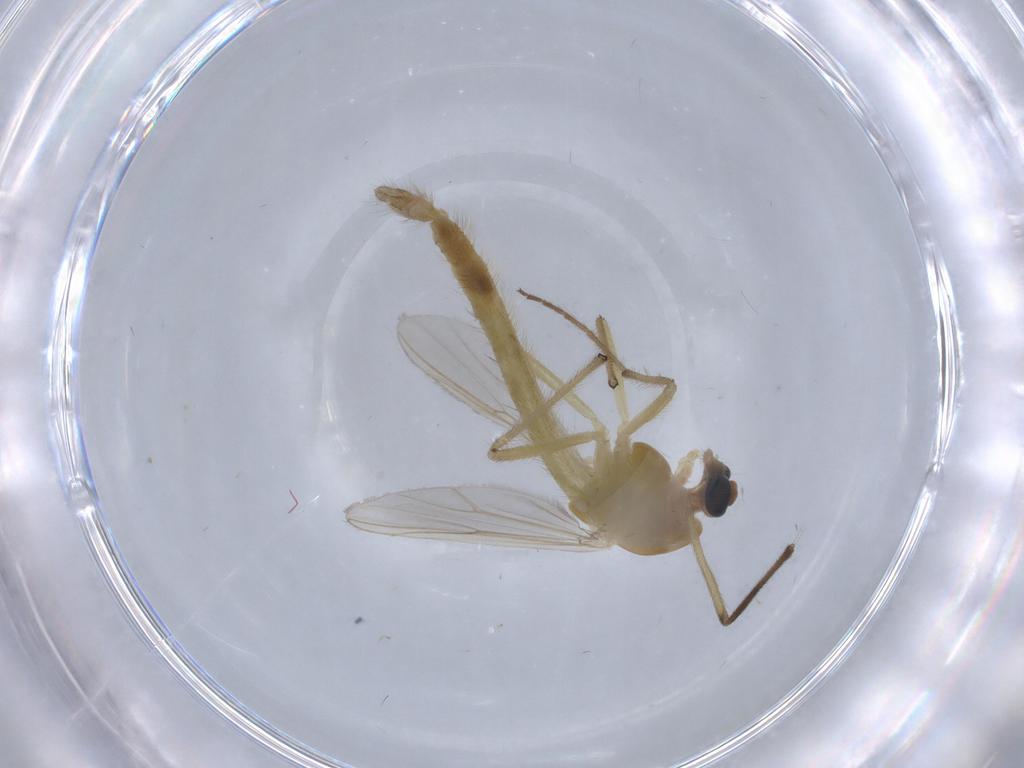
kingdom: Animalia
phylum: Arthropoda
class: Insecta
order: Diptera
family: Chironomidae
